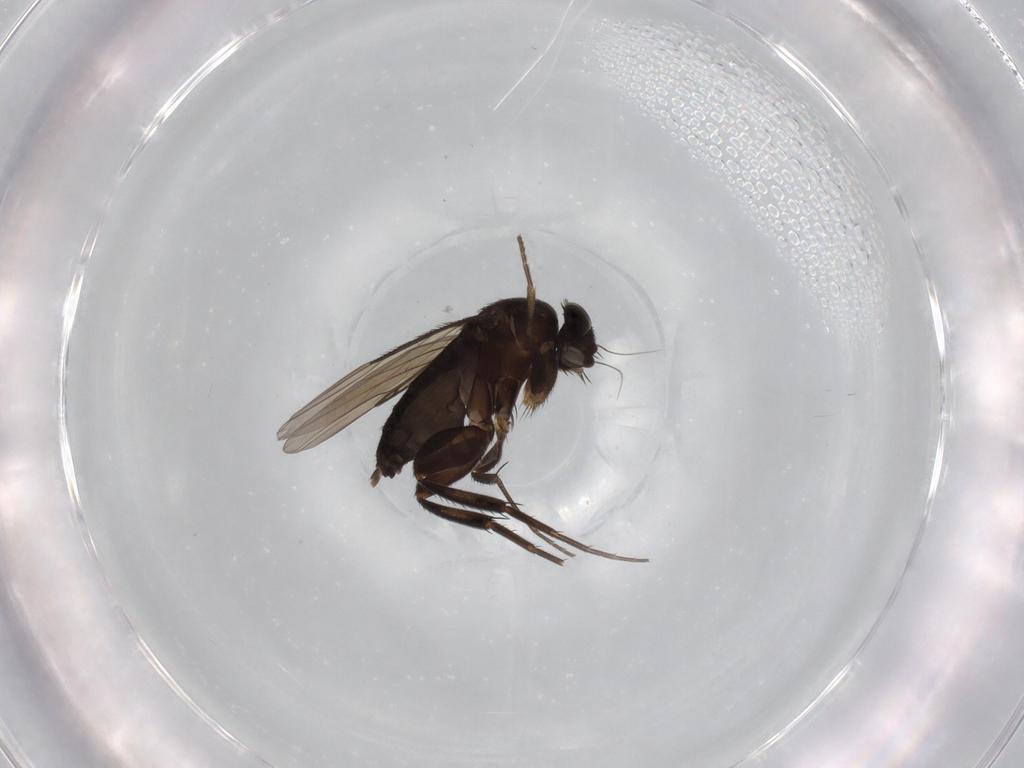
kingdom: Animalia
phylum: Arthropoda
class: Insecta
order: Diptera
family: Phoridae
